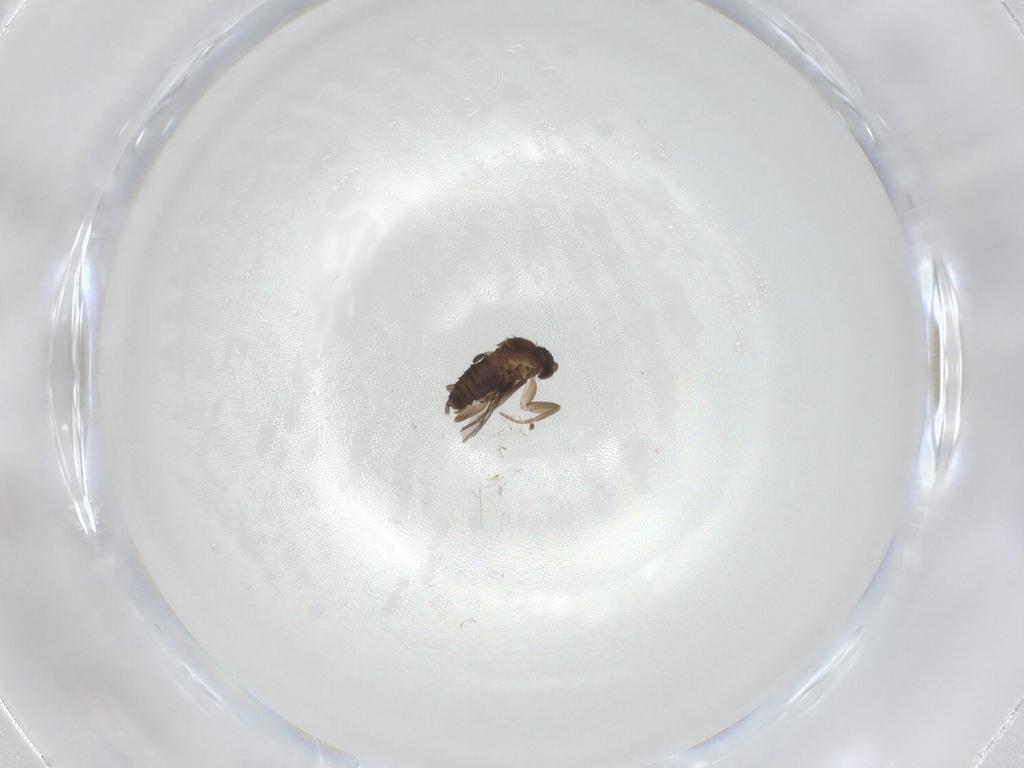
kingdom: Animalia
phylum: Arthropoda
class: Insecta
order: Diptera
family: Phoridae
